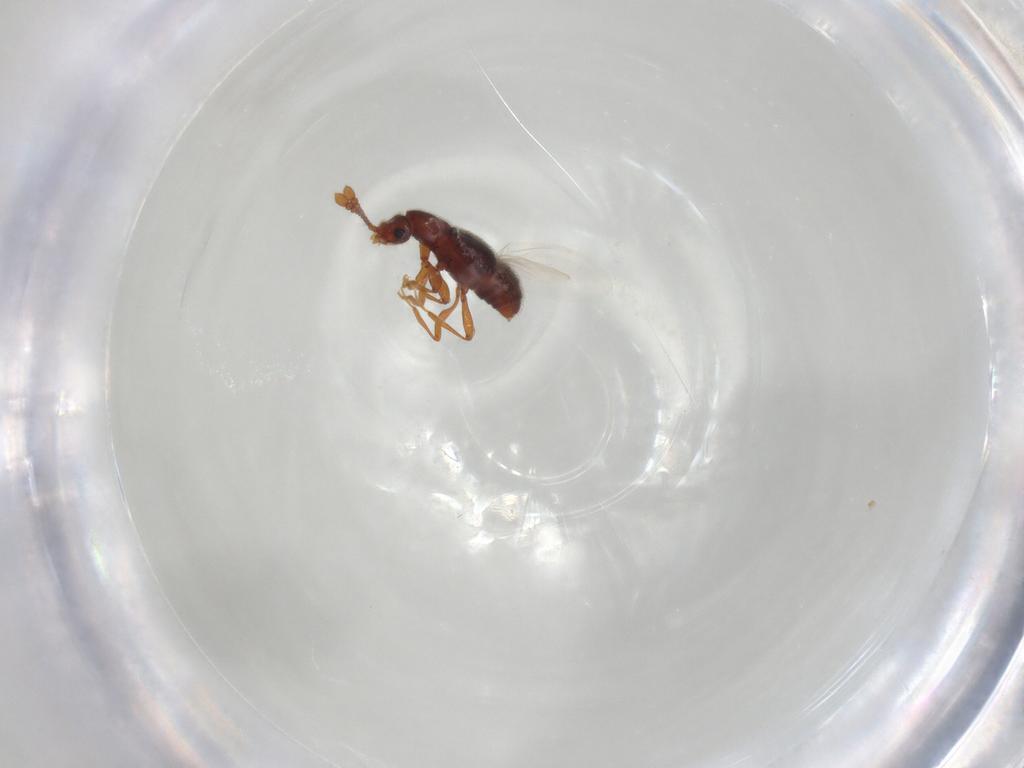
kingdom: Animalia
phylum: Arthropoda
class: Insecta
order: Coleoptera
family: Staphylinidae
